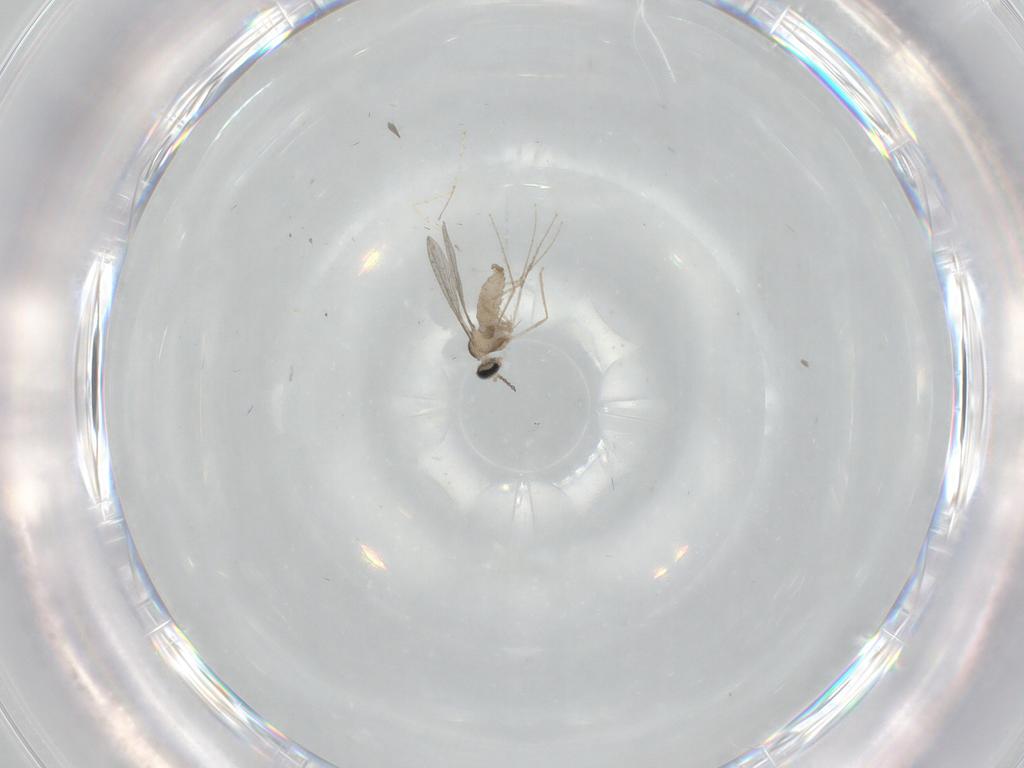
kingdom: Animalia
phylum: Arthropoda
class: Insecta
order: Diptera
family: Cecidomyiidae
